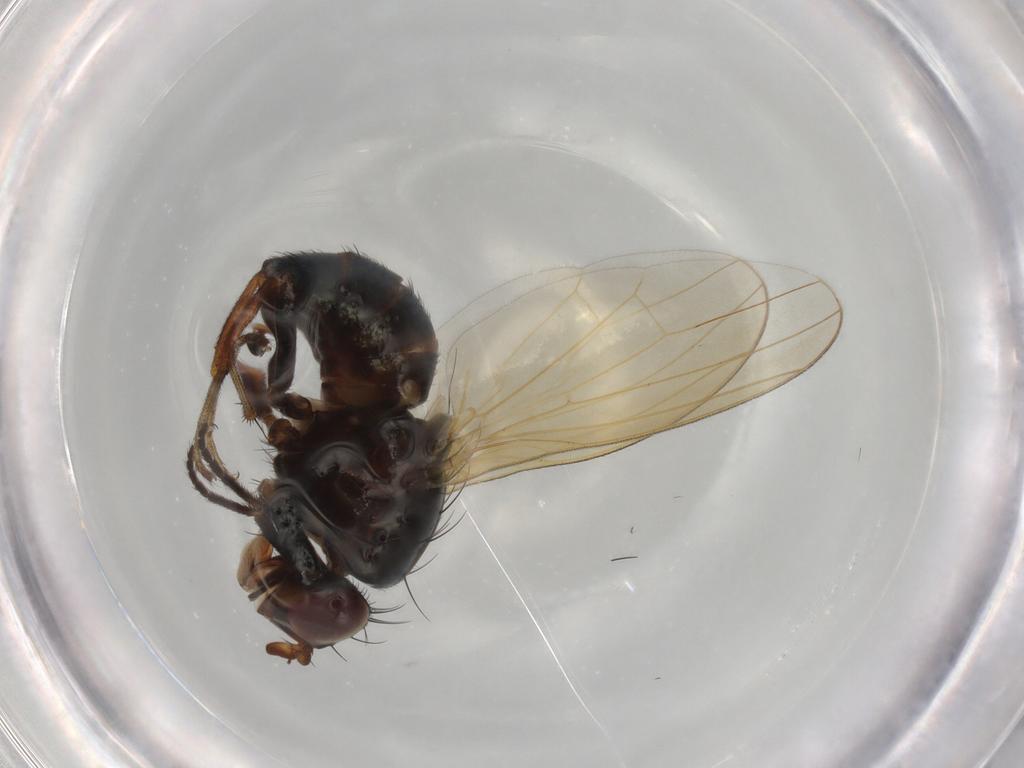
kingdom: Animalia
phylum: Arthropoda
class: Insecta
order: Diptera
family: Lauxaniidae
